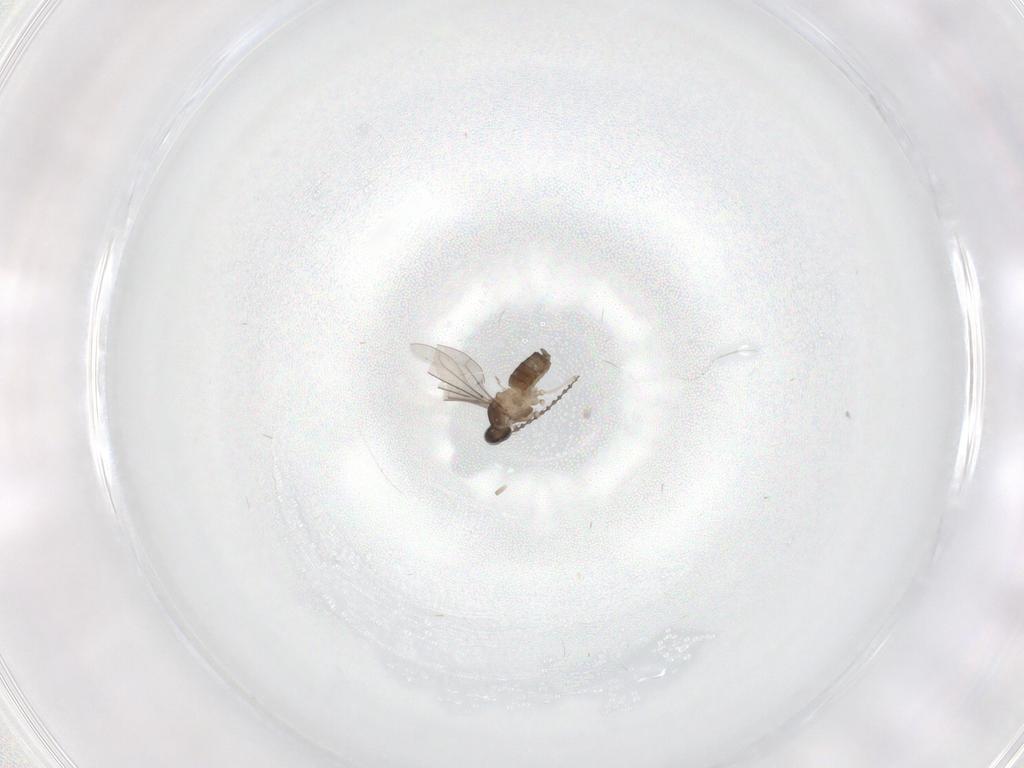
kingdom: Animalia
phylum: Arthropoda
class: Insecta
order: Diptera
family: Cecidomyiidae
